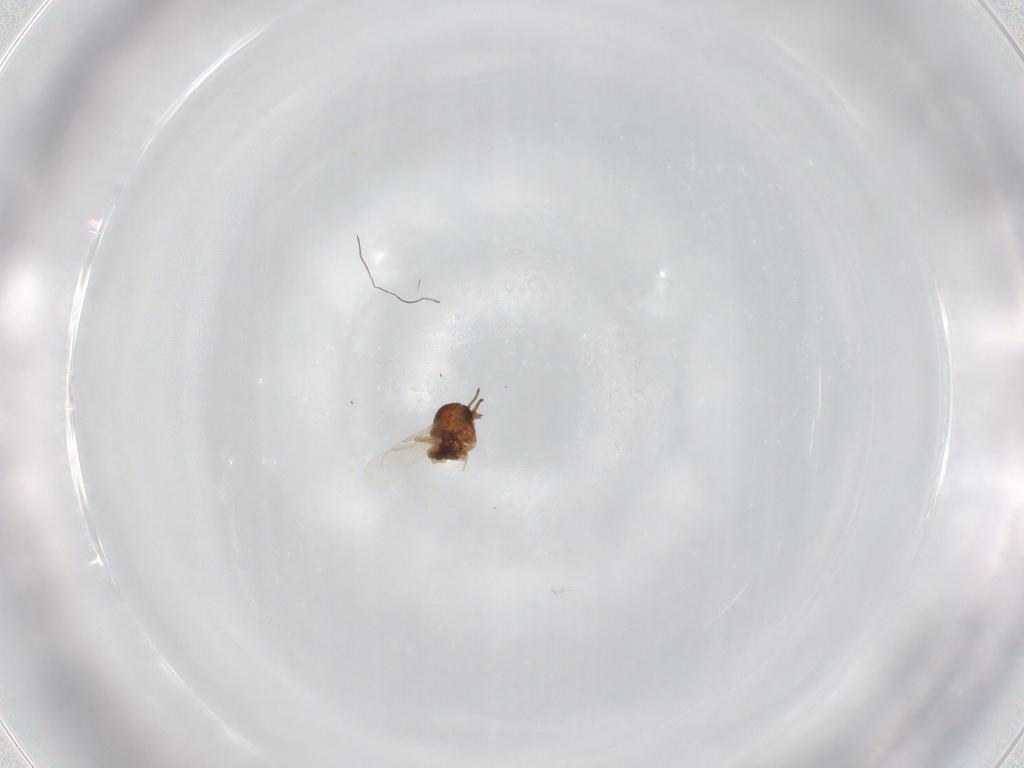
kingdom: Animalia
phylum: Arthropoda
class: Insecta
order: Diptera
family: Ceratopogonidae
